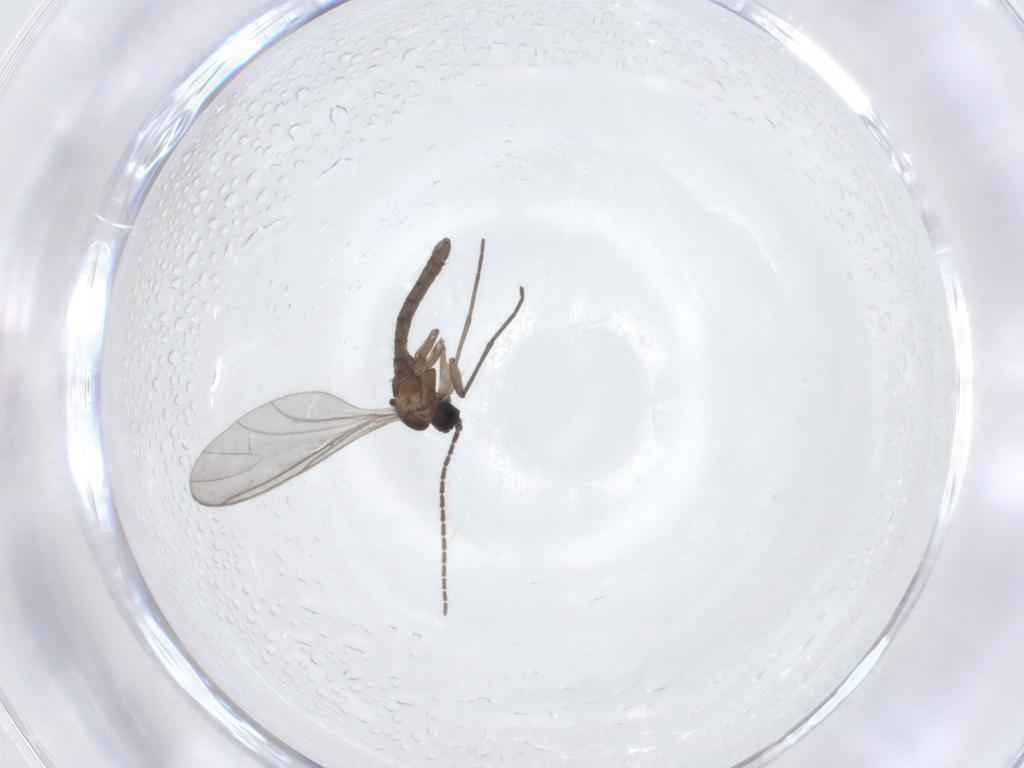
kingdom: Animalia
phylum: Arthropoda
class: Insecta
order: Diptera
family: Sciaridae
